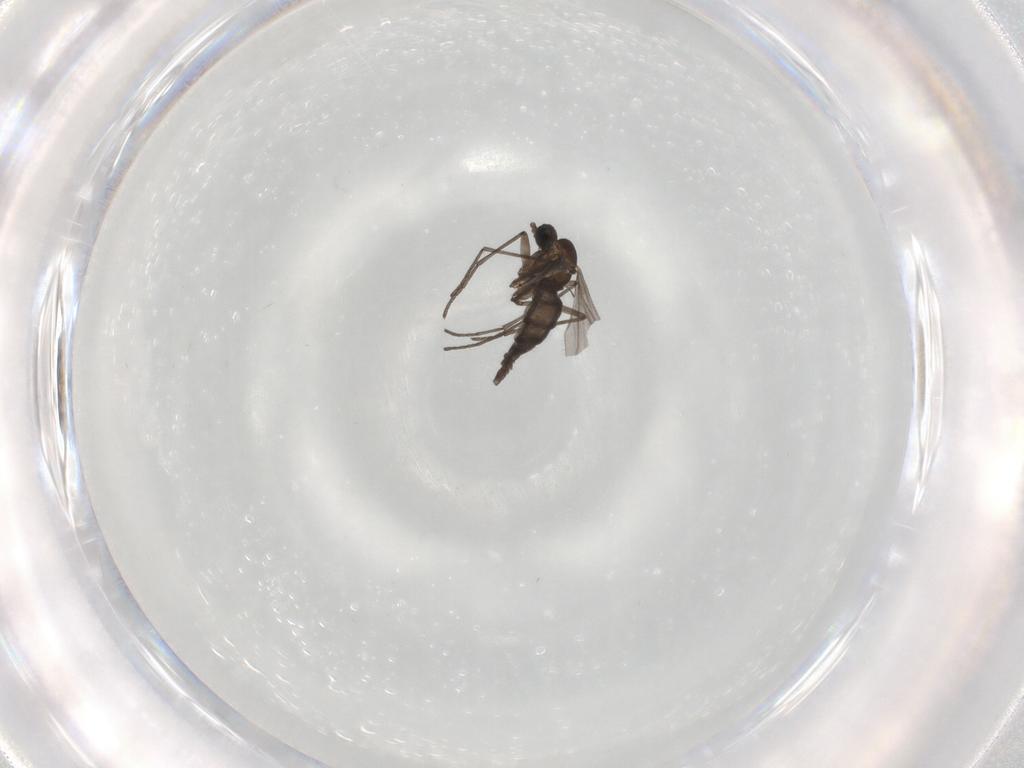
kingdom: Animalia
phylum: Arthropoda
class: Insecta
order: Diptera
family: Sciaridae
